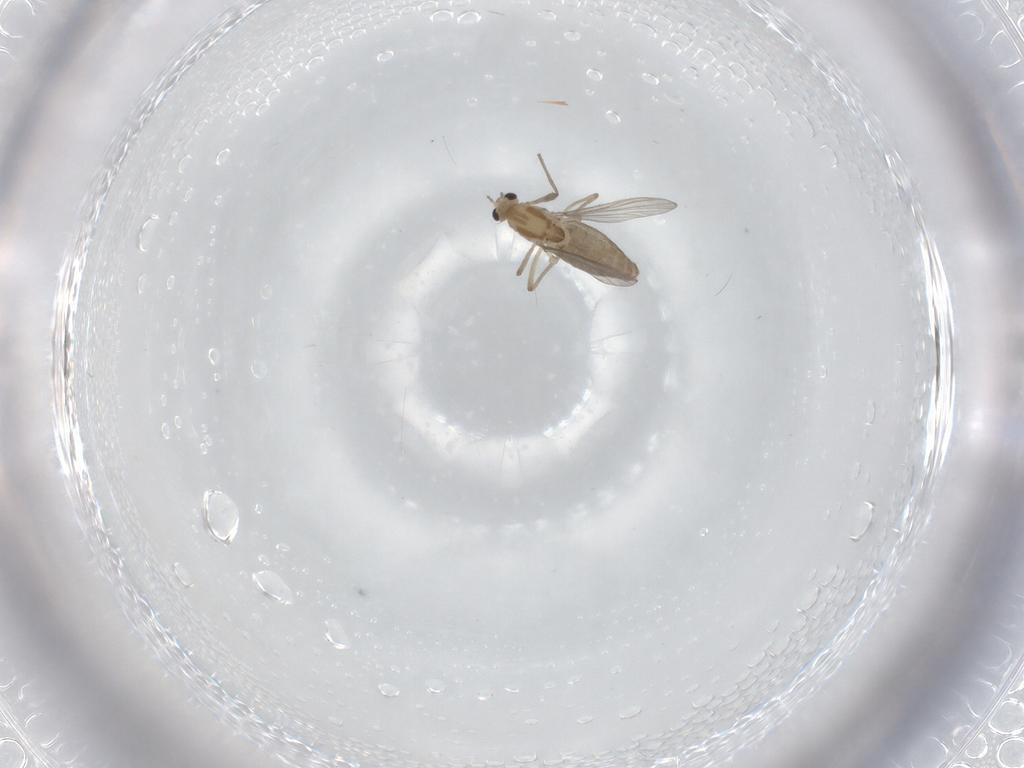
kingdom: Animalia
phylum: Arthropoda
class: Insecta
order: Diptera
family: Chironomidae
